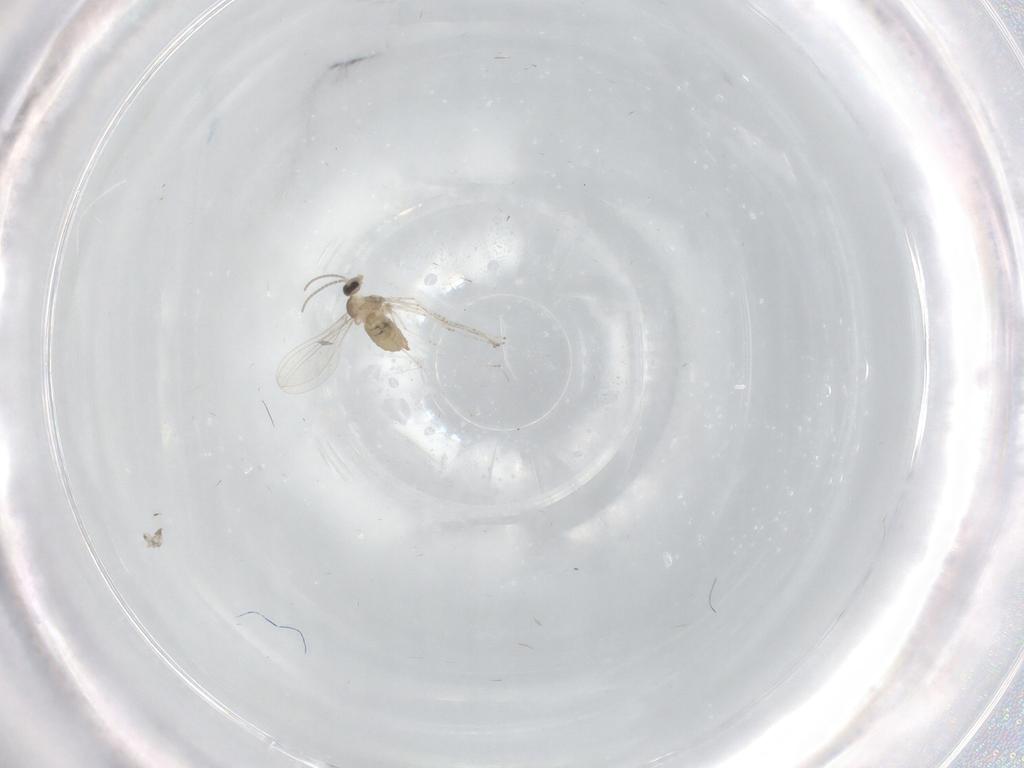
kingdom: Animalia
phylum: Arthropoda
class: Insecta
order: Diptera
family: Cecidomyiidae
